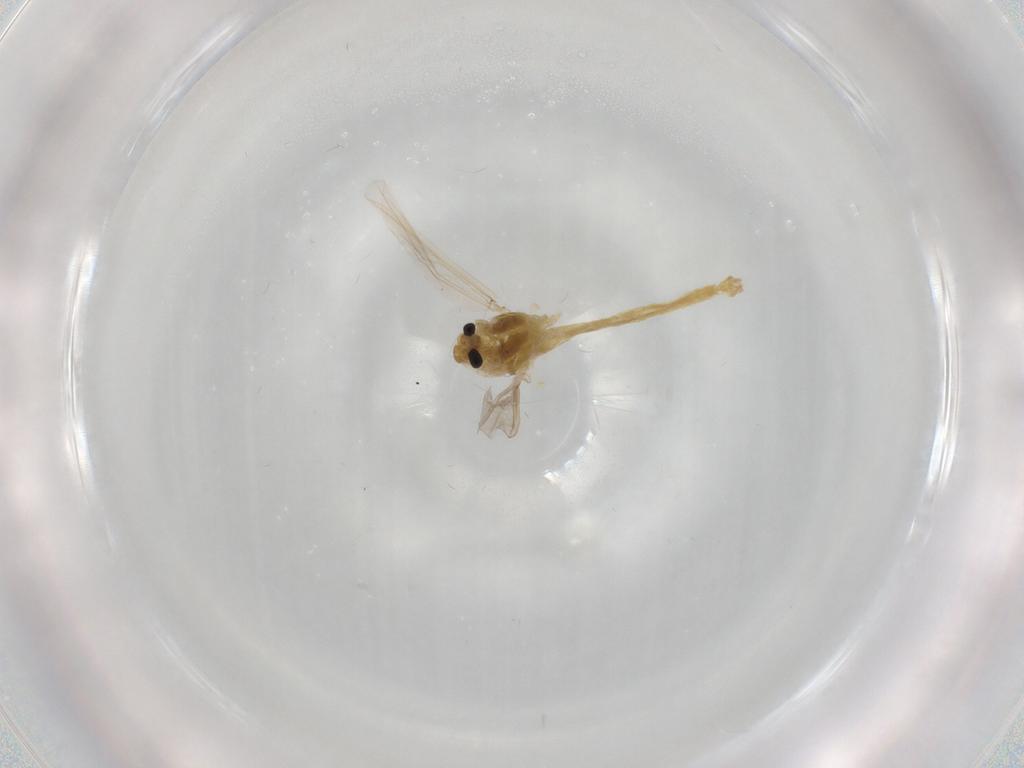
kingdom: Animalia
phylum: Arthropoda
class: Insecta
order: Diptera
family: Chironomidae
